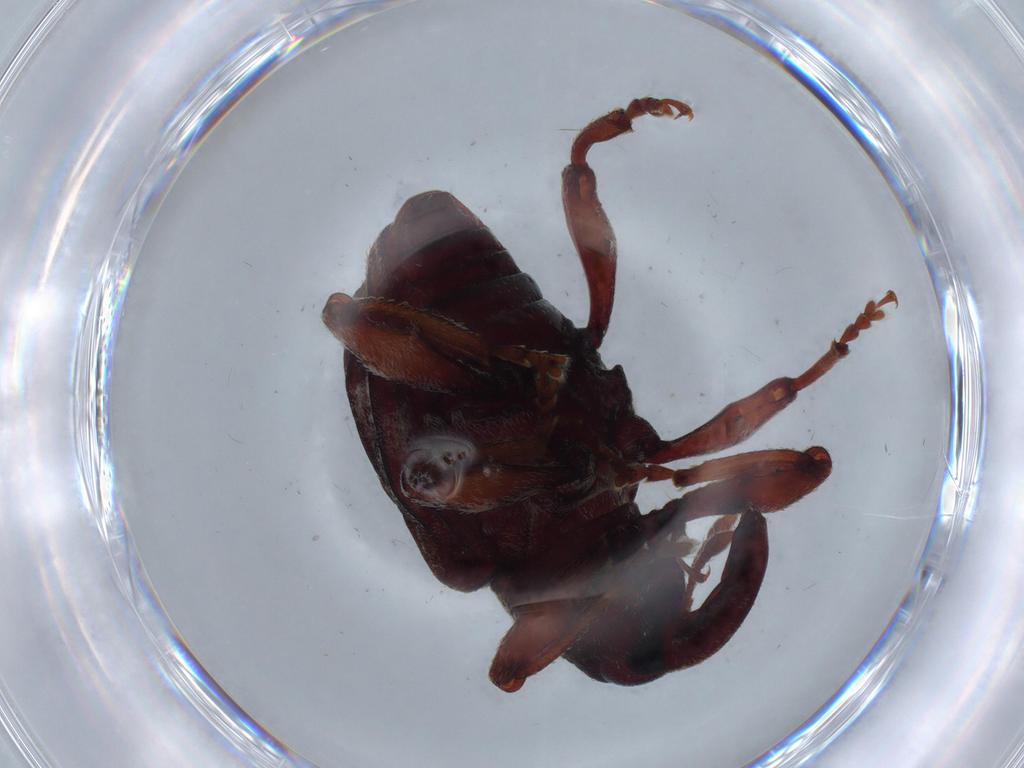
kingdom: Animalia
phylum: Arthropoda
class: Insecta
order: Coleoptera
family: Curculionidae
